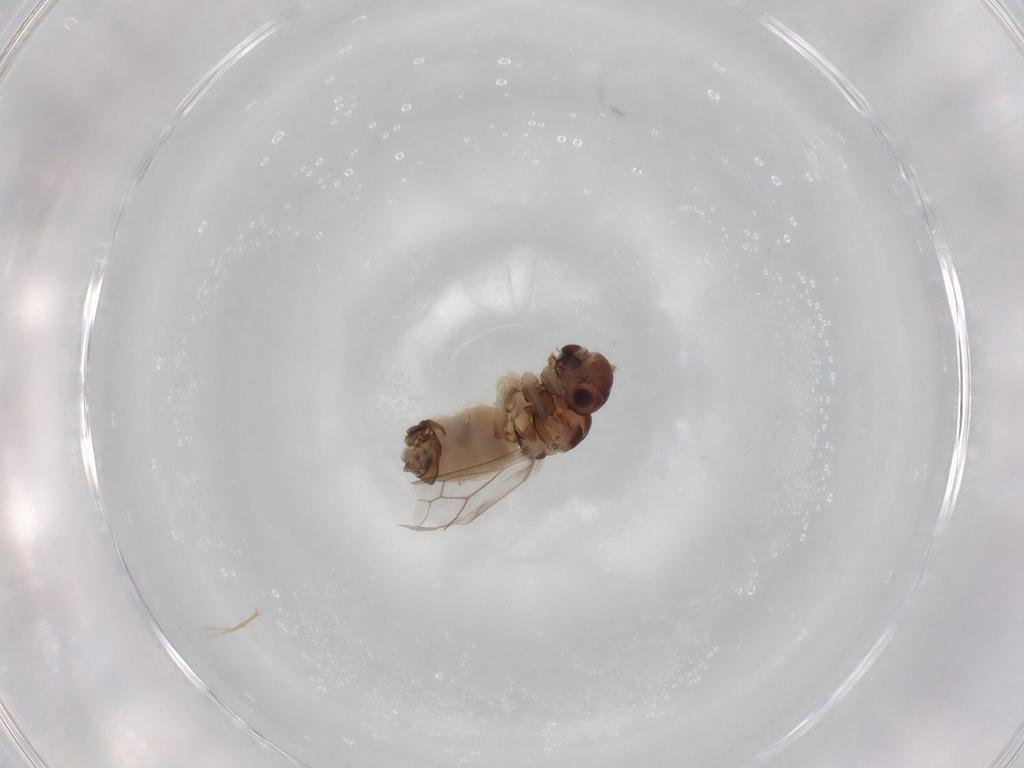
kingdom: Animalia
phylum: Arthropoda
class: Insecta
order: Psocodea
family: Peripsocidae
